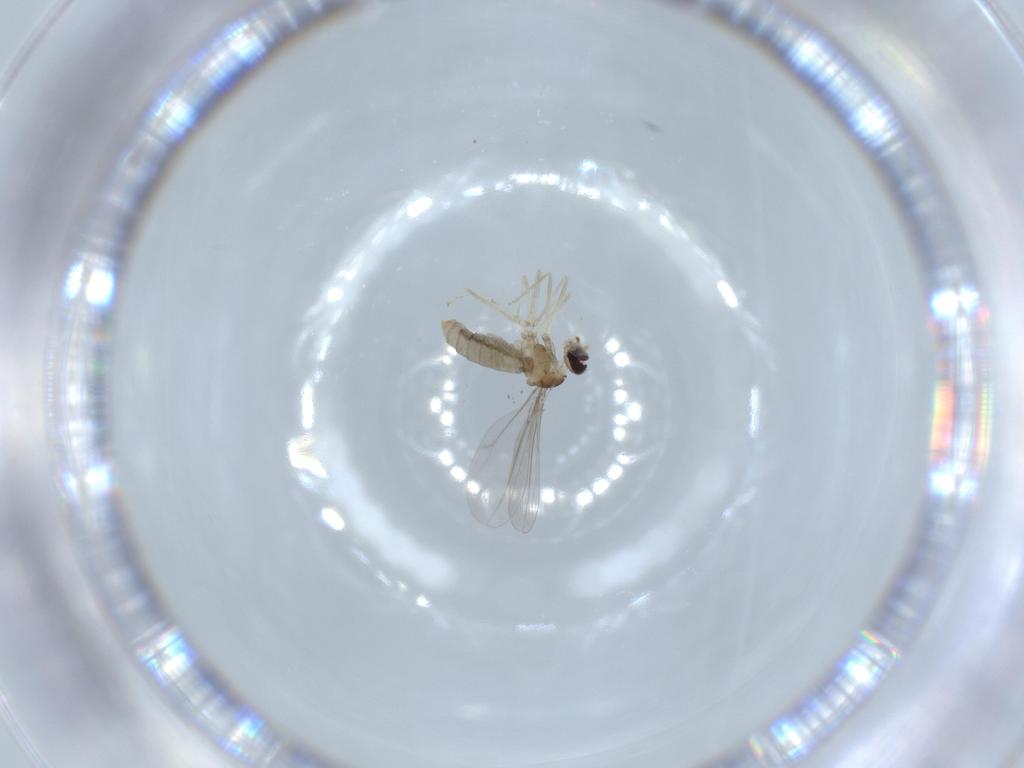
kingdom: Animalia
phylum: Arthropoda
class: Insecta
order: Diptera
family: Cecidomyiidae
